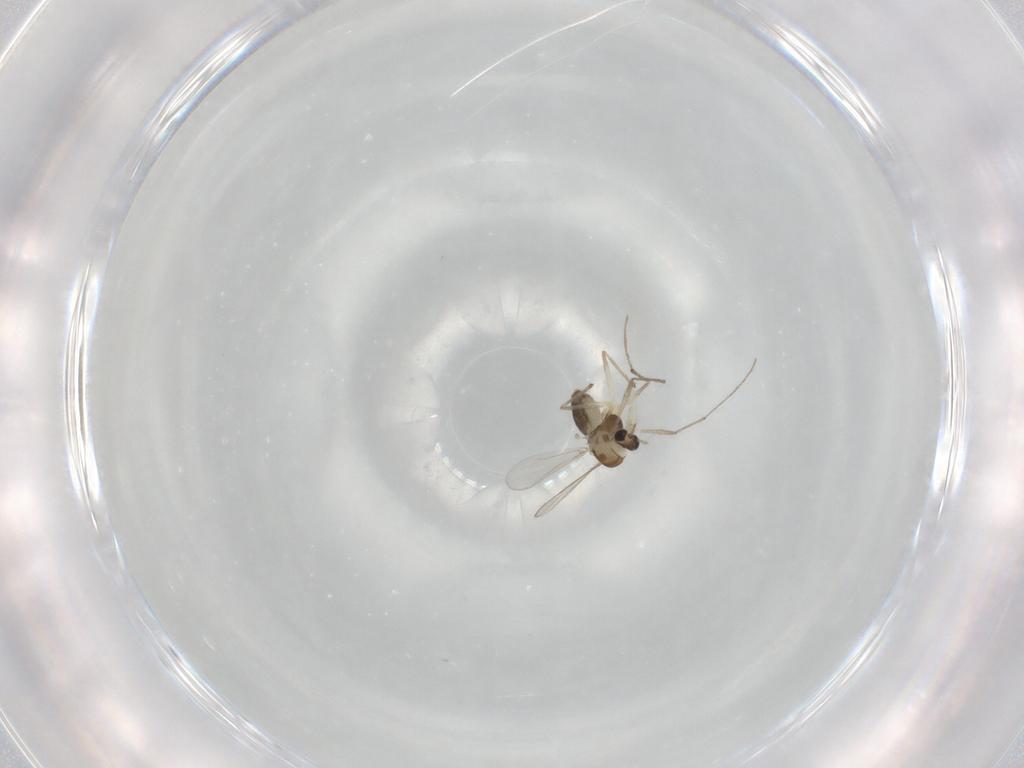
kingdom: Animalia
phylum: Arthropoda
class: Insecta
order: Diptera
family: Chironomidae
